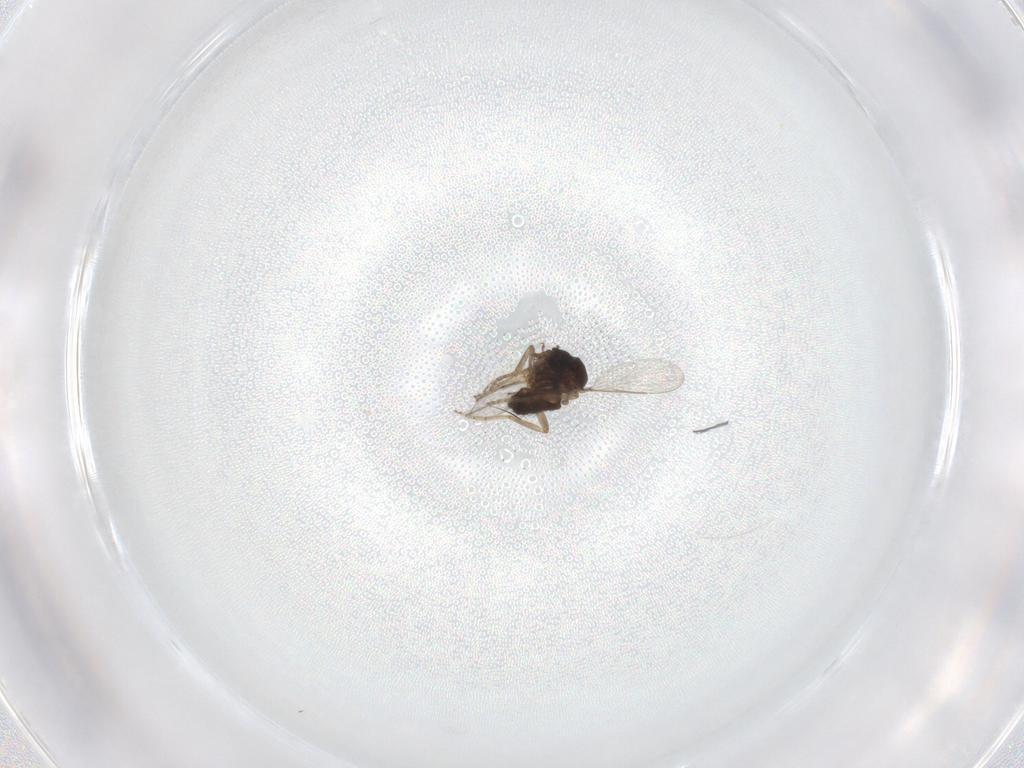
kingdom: Animalia
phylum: Arthropoda
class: Insecta
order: Diptera
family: Ceratopogonidae
